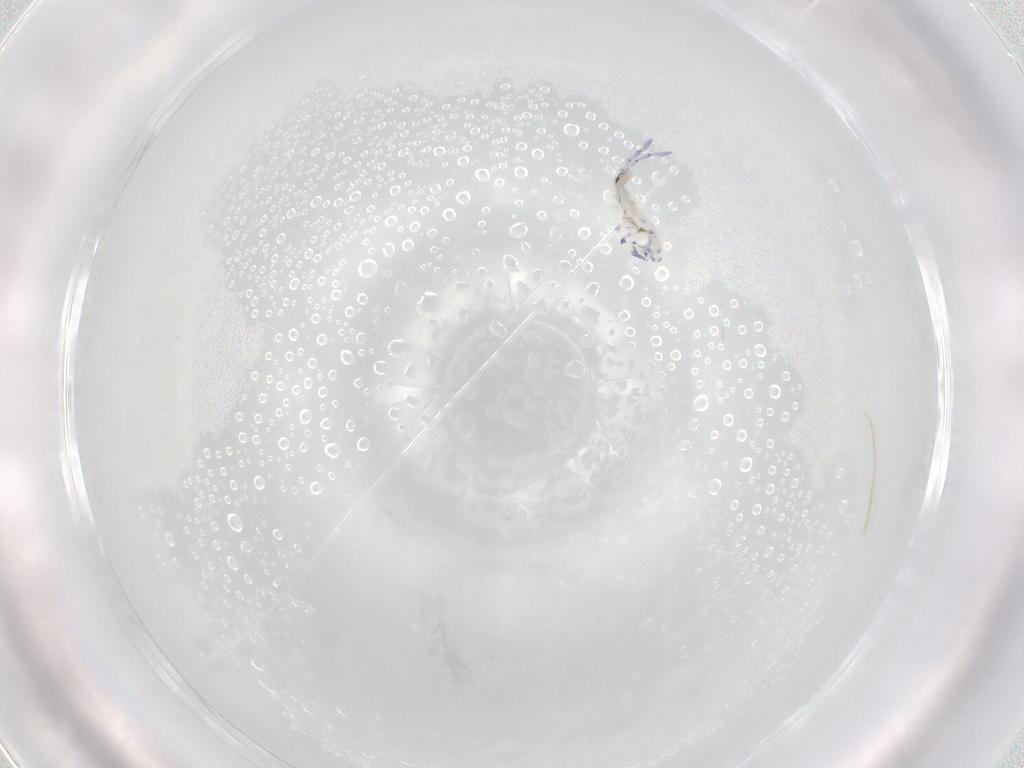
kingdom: Animalia
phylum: Arthropoda
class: Collembola
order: Entomobryomorpha
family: Entomobryidae
